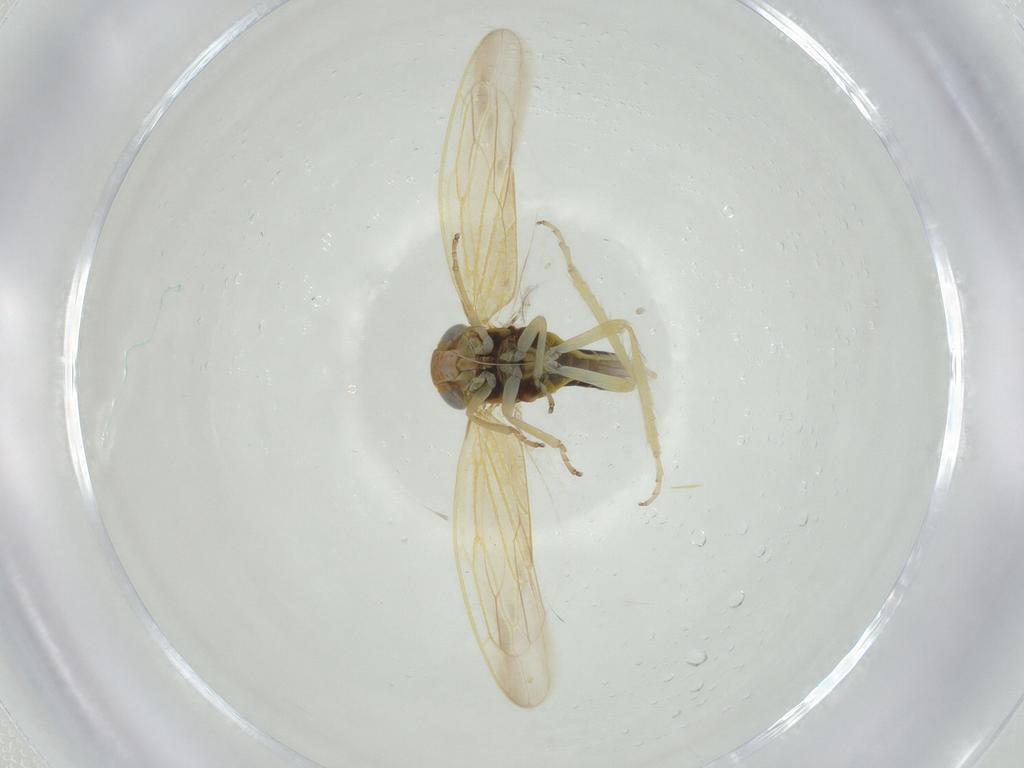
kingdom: Animalia
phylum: Arthropoda
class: Insecta
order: Hemiptera
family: Cicadellidae
